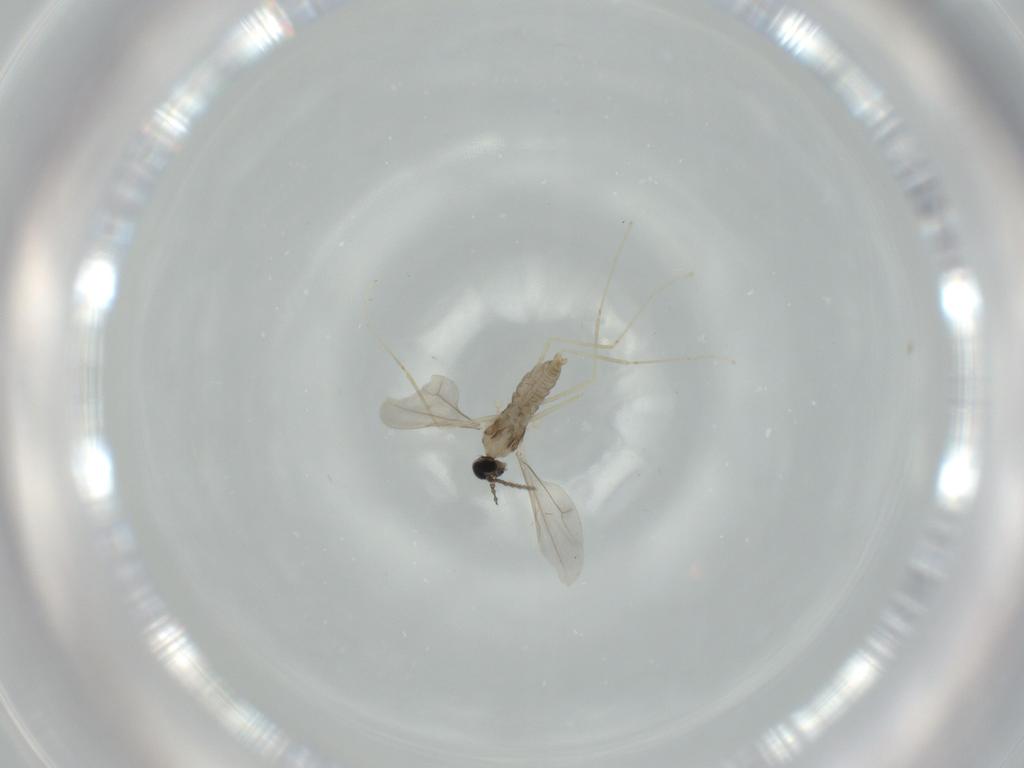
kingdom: Animalia
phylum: Arthropoda
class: Insecta
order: Diptera
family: Cecidomyiidae
